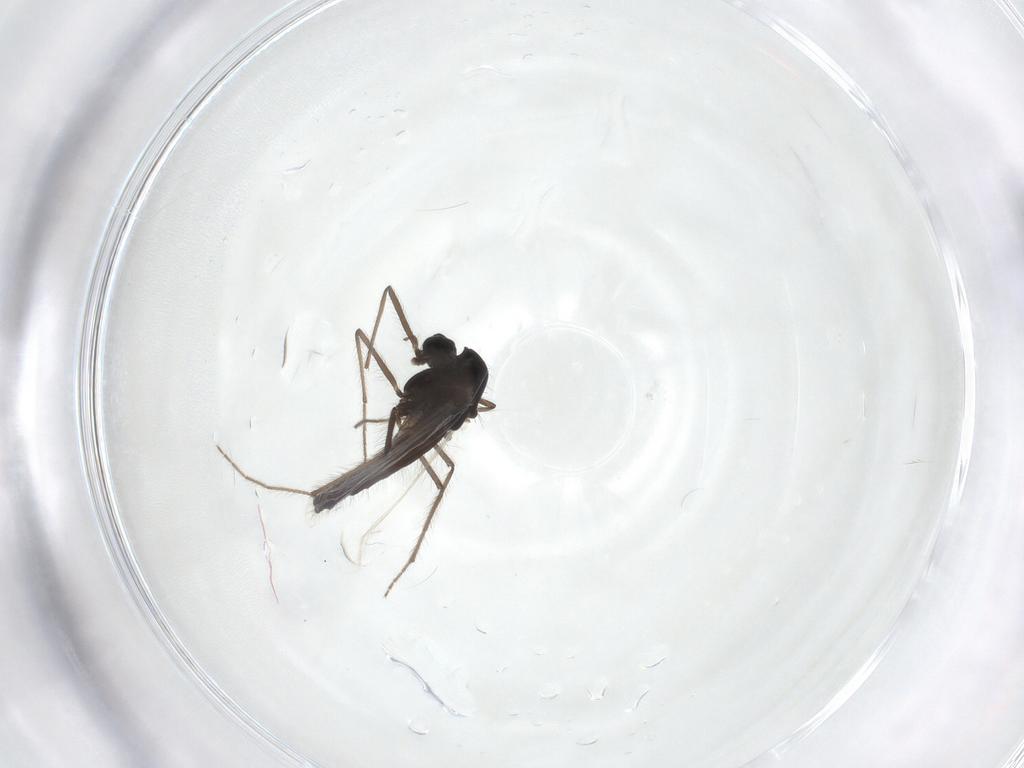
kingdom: Animalia
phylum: Arthropoda
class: Insecta
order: Diptera
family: Chironomidae
